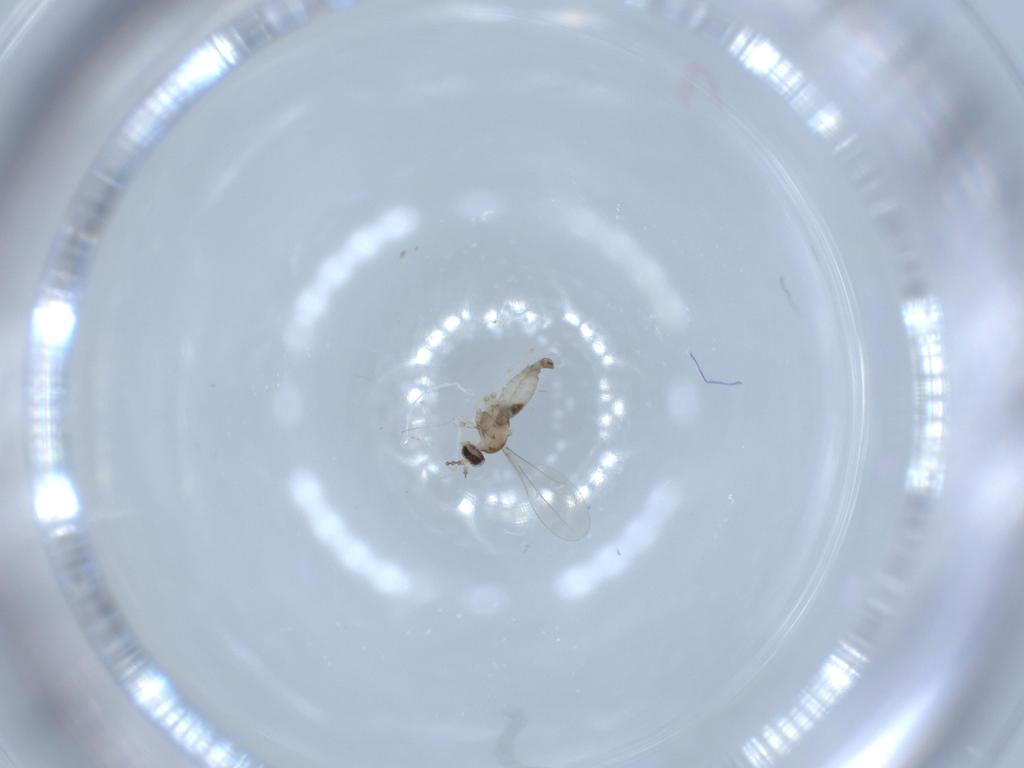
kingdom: Animalia
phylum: Arthropoda
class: Insecta
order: Diptera
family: Cecidomyiidae
